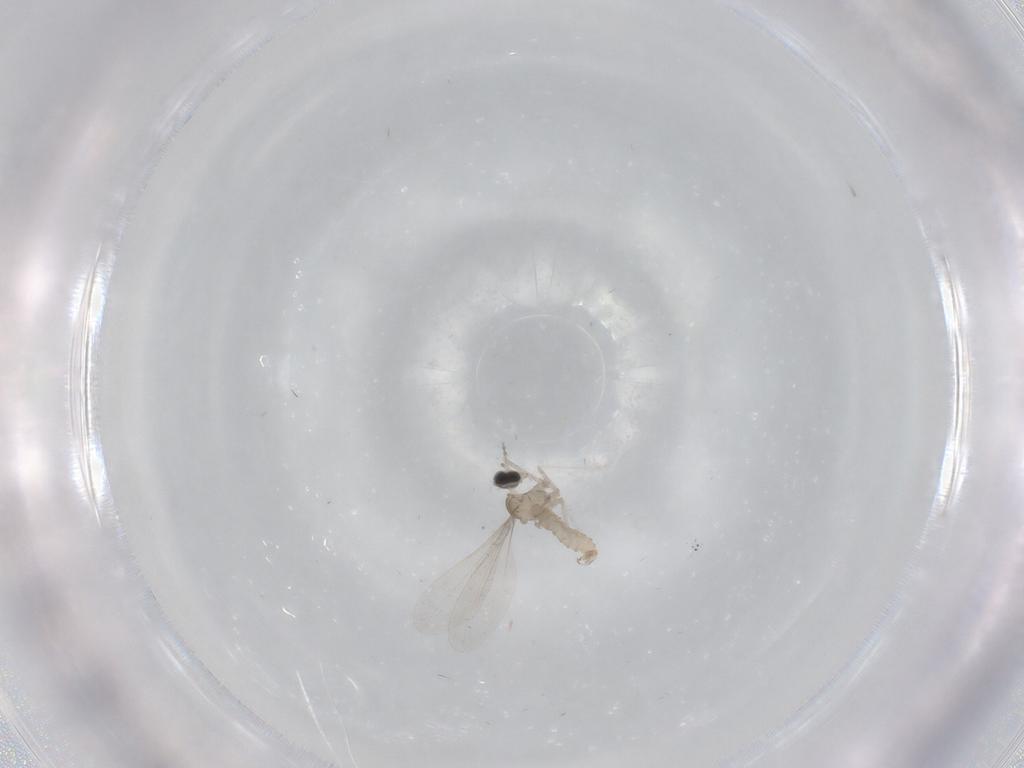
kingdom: Animalia
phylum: Arthropoda
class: Insecta
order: Diptera
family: Cecidomyiidae
